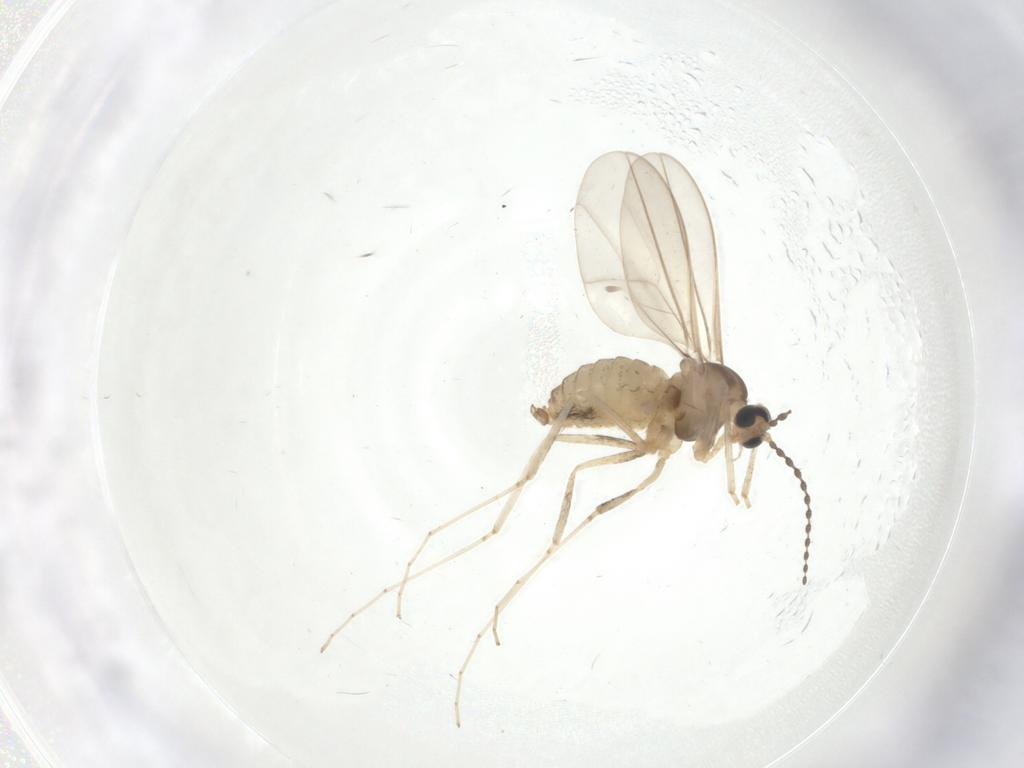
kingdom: Animalia
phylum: Arthropoda
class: Insecta
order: Diptera
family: Cecidomyiidae
